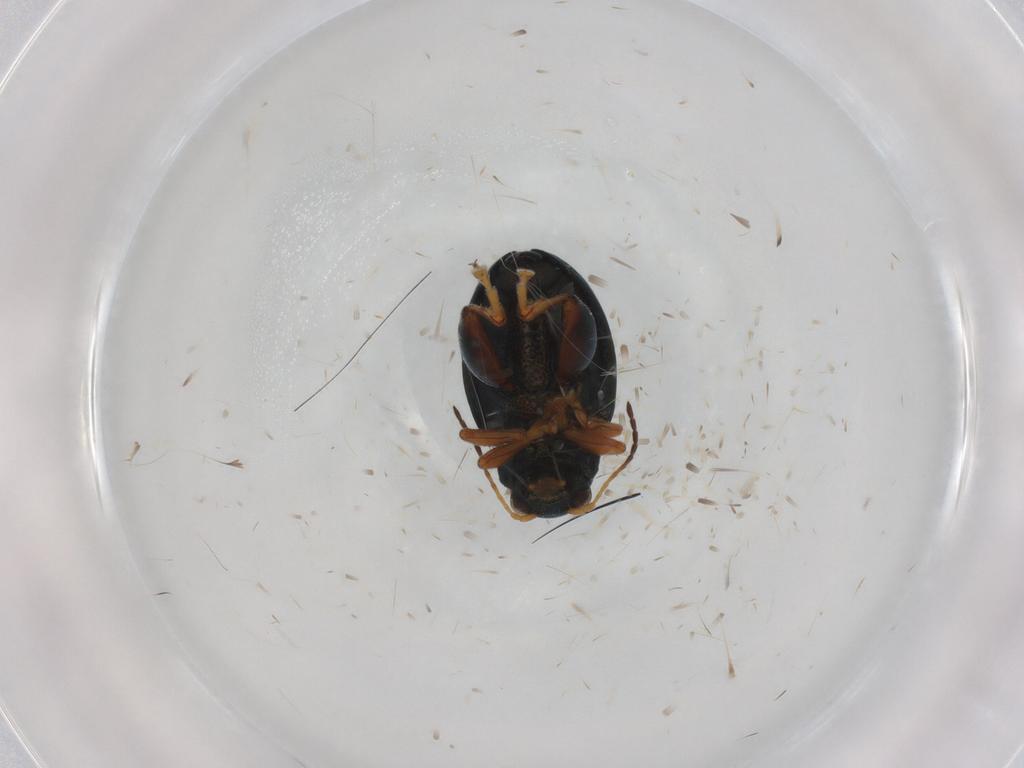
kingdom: Animalia
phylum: Arthropoda
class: Insecta
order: Coleoptera
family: Chrysomelidae
